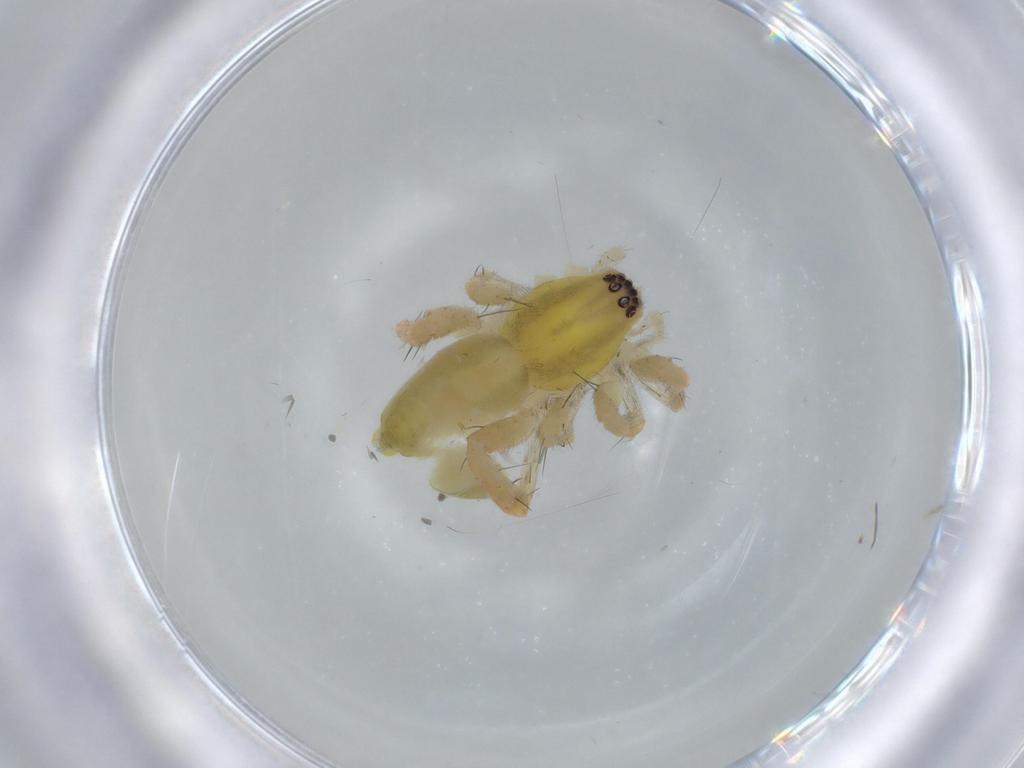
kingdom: Animalia
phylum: Arthropoda
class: Arachnida
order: Araneae
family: Anyphaenidae
